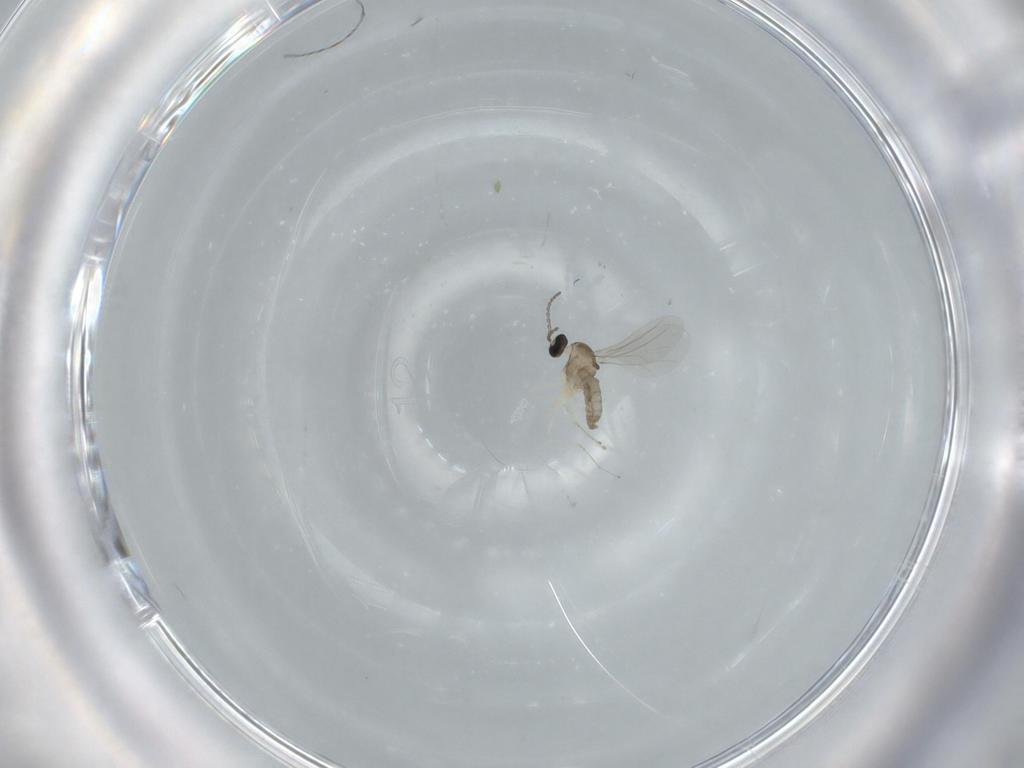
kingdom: Animalia
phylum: Arthropoda
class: Insecta
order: Diptera
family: Cecidomyiidae
